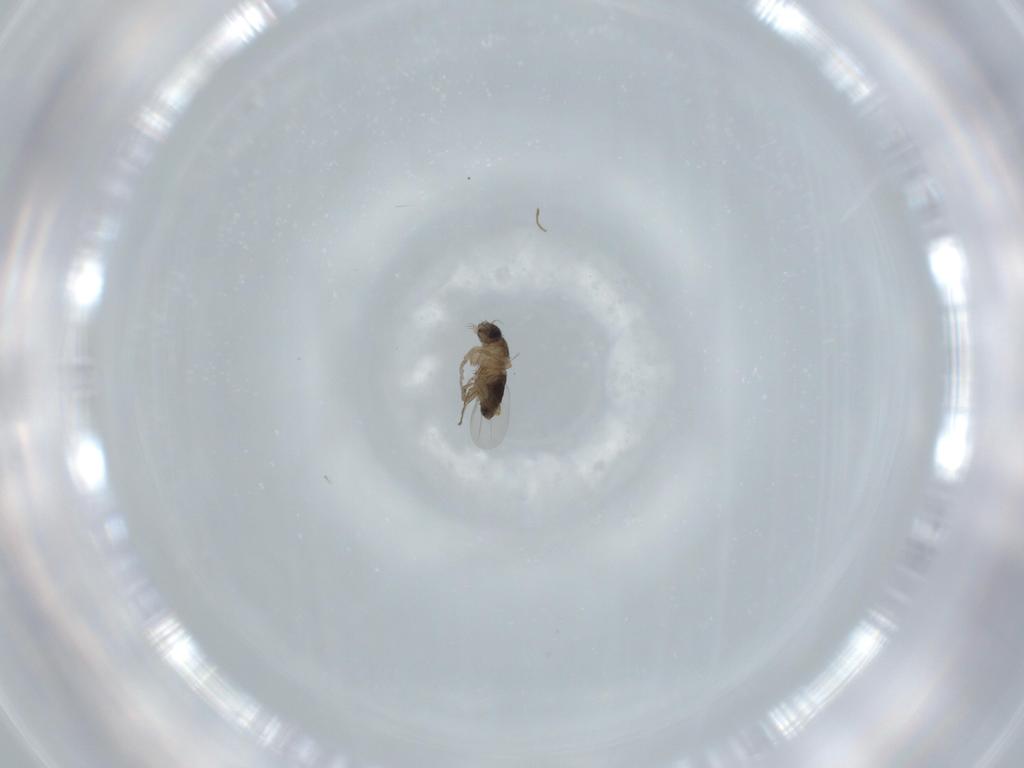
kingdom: Animalia
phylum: Arthropoda
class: Insecta
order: Diptera
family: Phoridae
